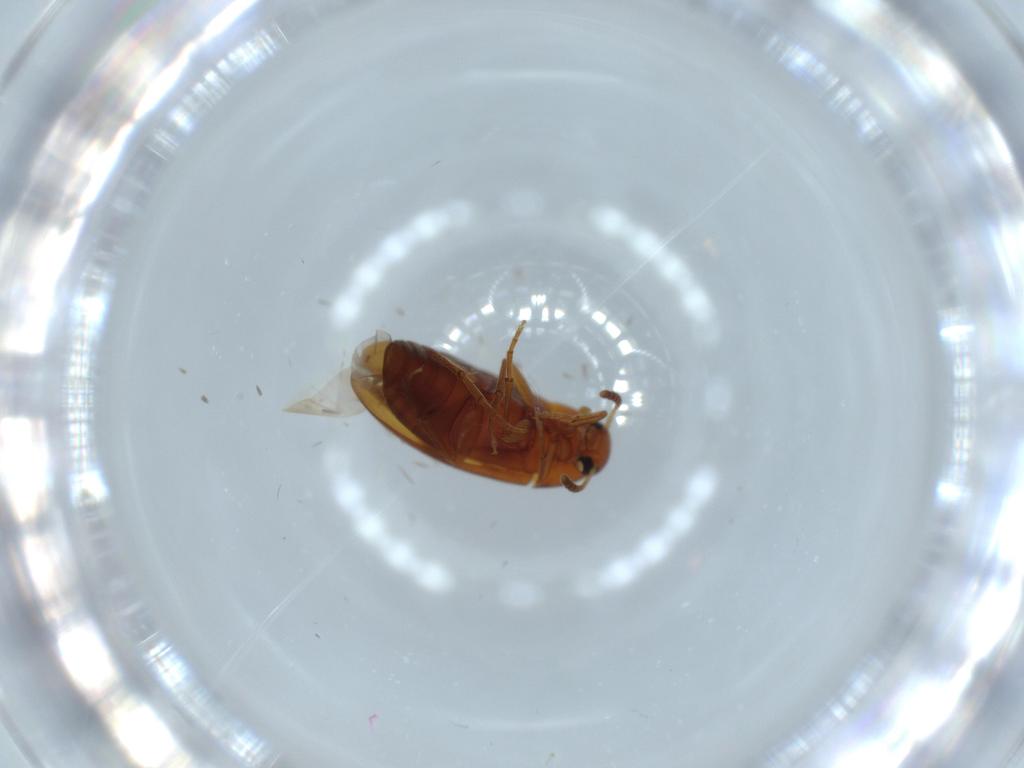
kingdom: Animalia
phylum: Arthropoda
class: Insecta
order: Coleoptera
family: Scraptiidae
